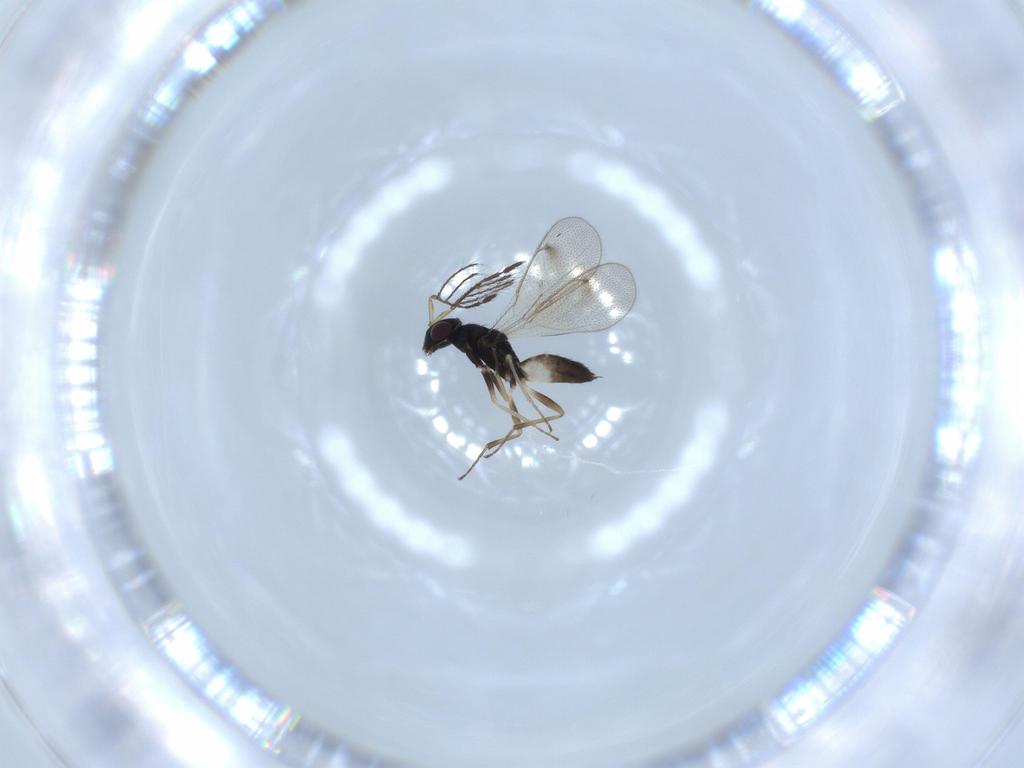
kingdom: Animalia
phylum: Arthropoda
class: Insecta
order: Hymenoptera
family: Eulophidae
